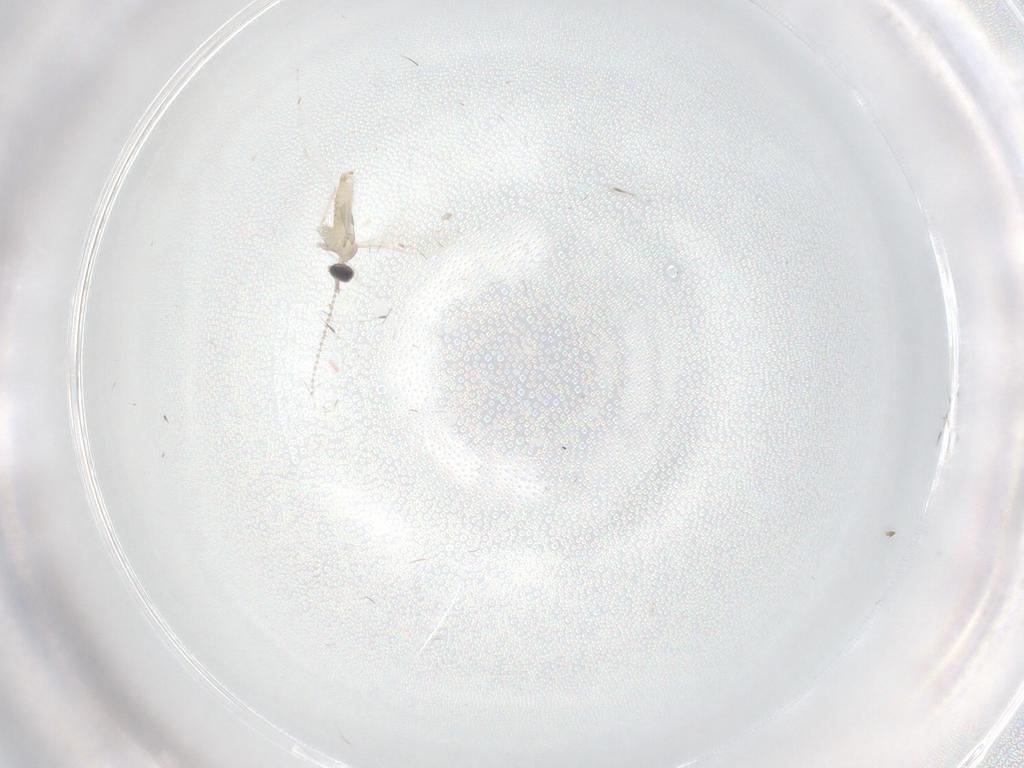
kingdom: Animalia
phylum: Arthropoda
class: Insecta
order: Diptera
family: Cecidomyiidae
